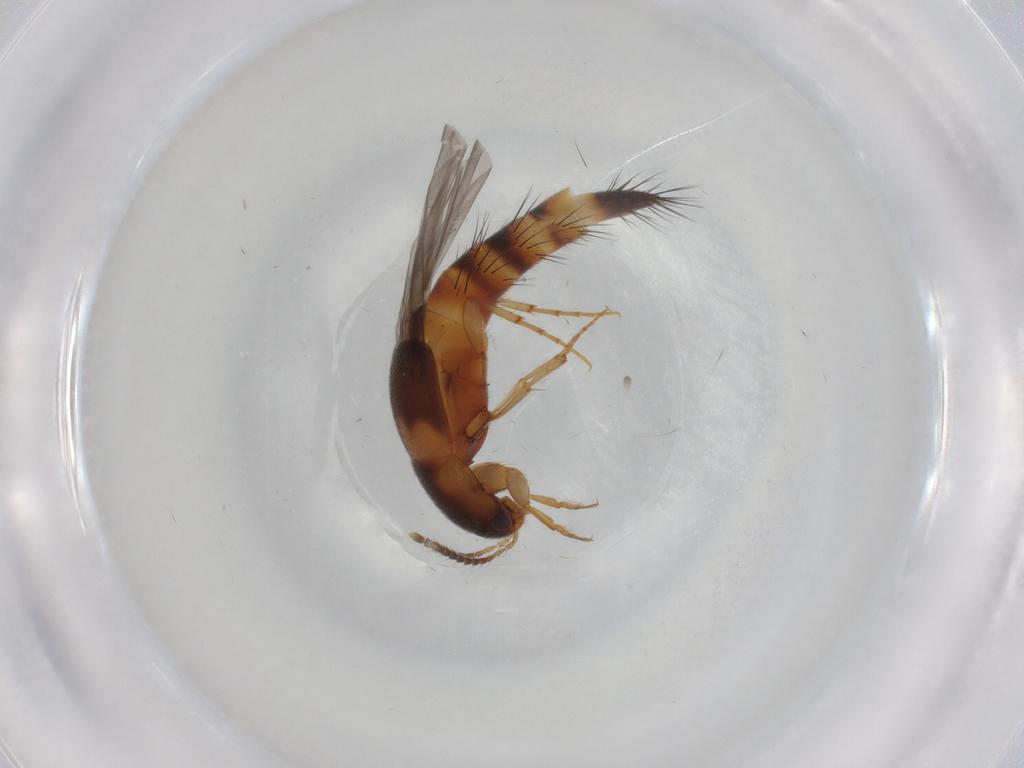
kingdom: Animalia
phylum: Arthropoda
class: Insecta
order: Coleoptera
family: Staphylinidae
